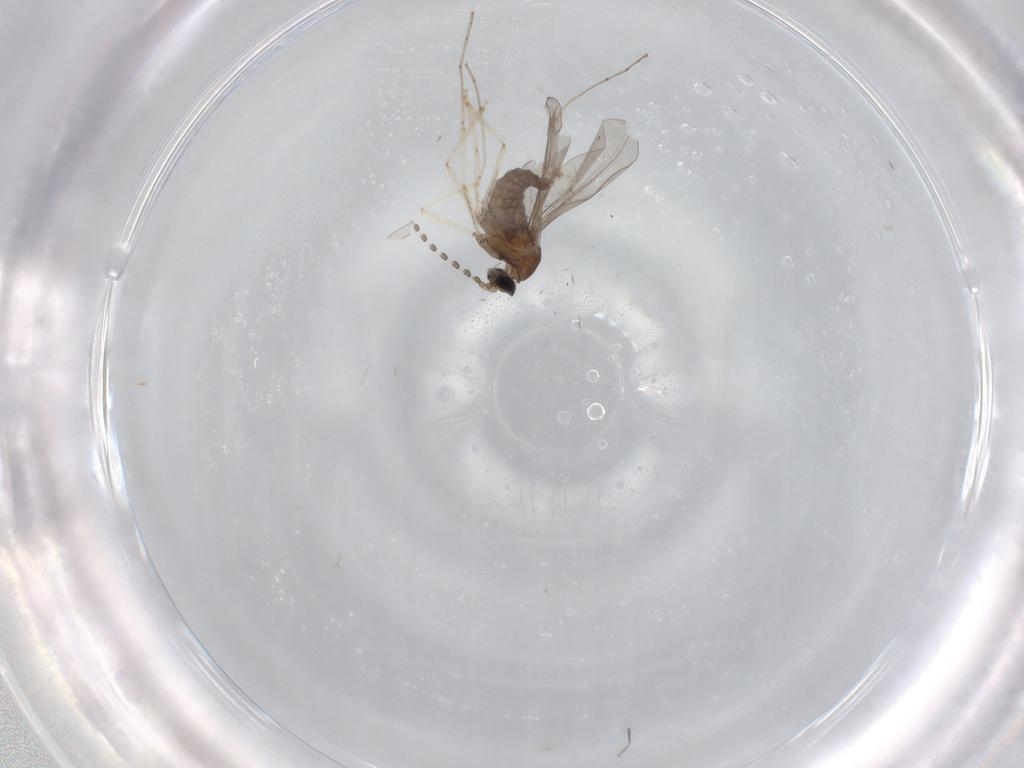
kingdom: Animalia
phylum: Arthropoda
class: Insecta
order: Diptera
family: Cecidomyiidae
